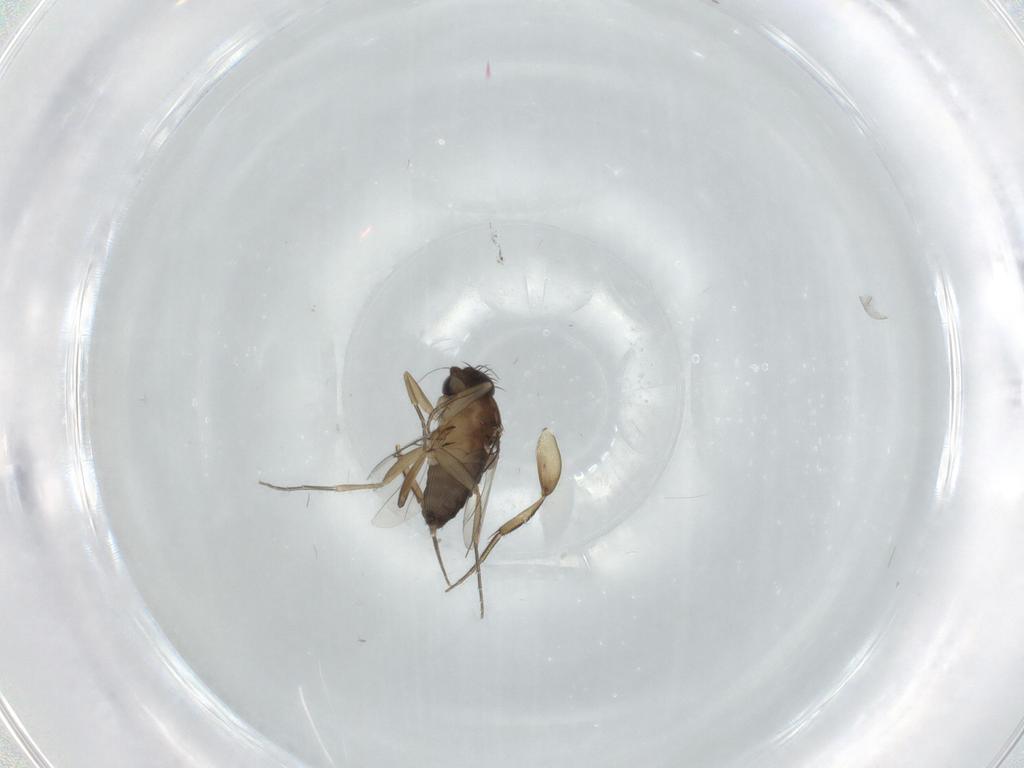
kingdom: Animalia
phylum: Arthropoda
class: Insecta
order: Diptera
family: Phoridae
